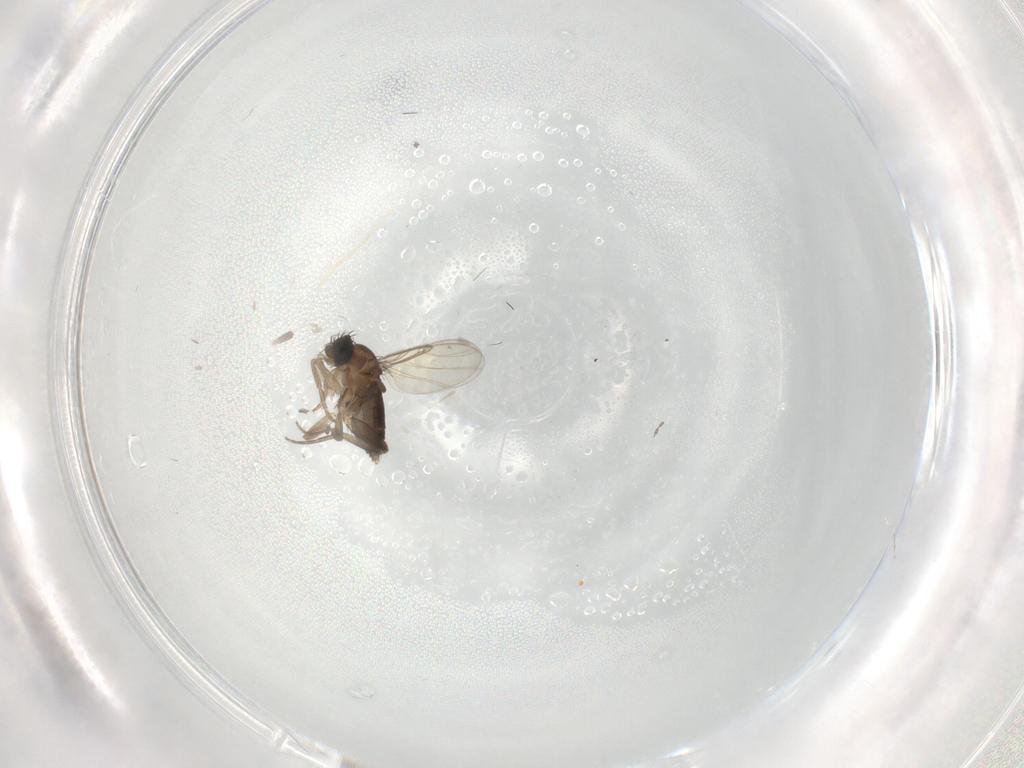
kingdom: Animalia
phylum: Arthropoda
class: Insecta
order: Diptera
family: Phoridae
